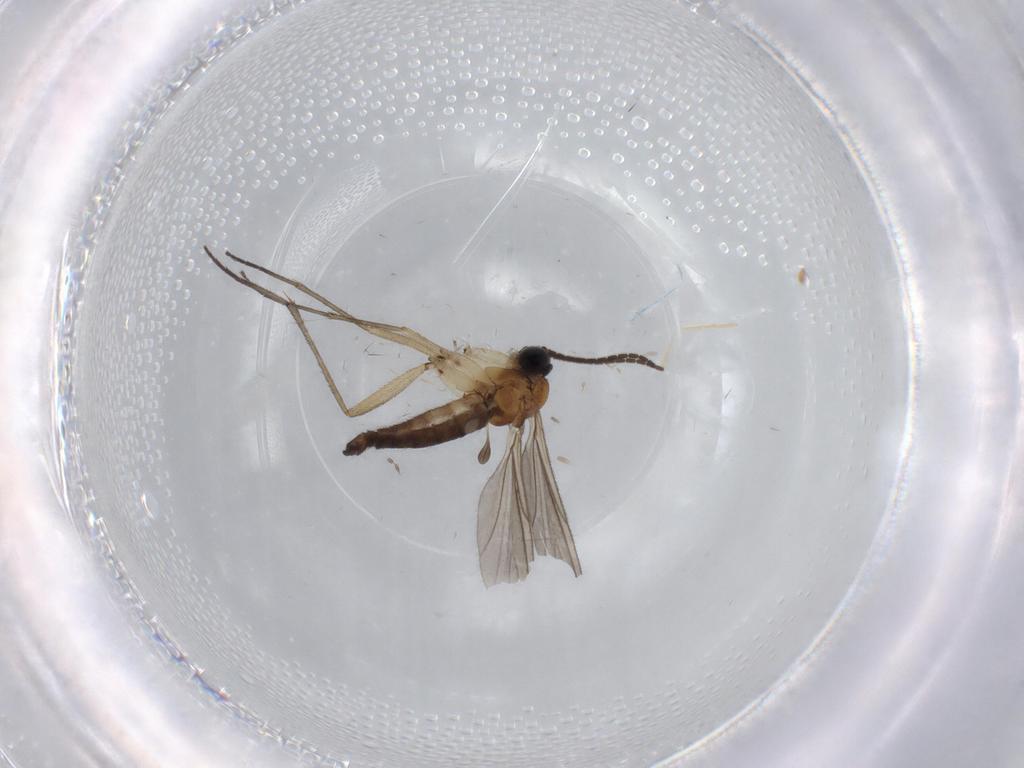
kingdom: Animalia
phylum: Arthropoda
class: Insecta
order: Diptera
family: Cecidomyiidae
